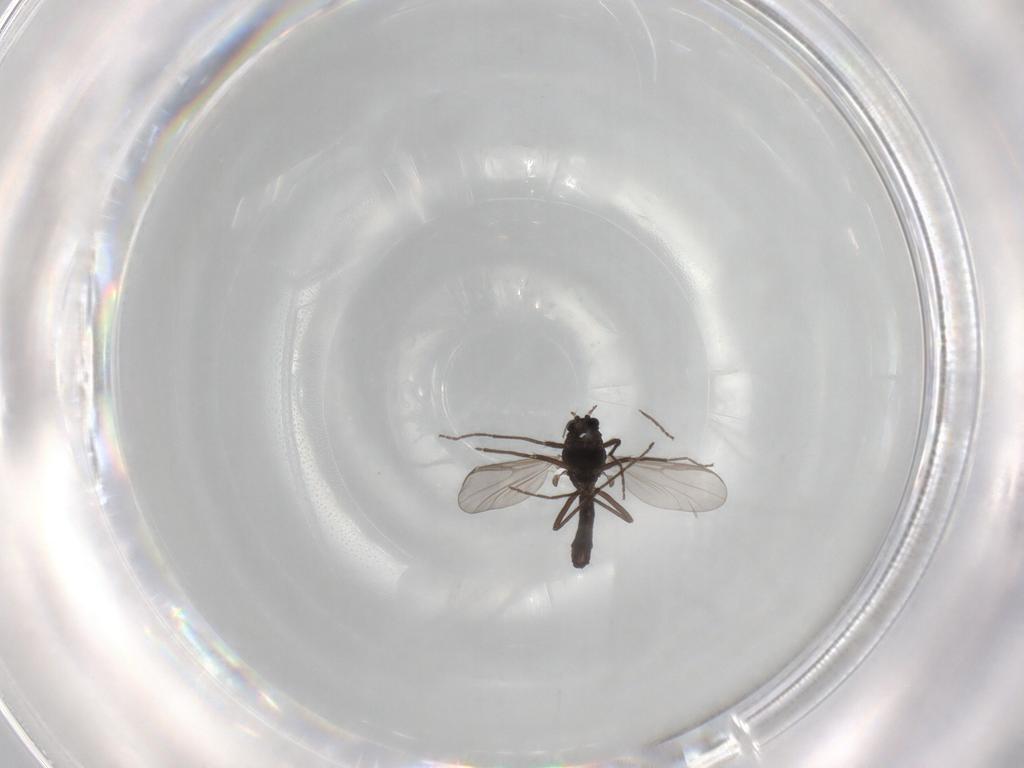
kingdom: Animalia
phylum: Arthropoda
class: Insecta
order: Diptera
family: Chironomidae
